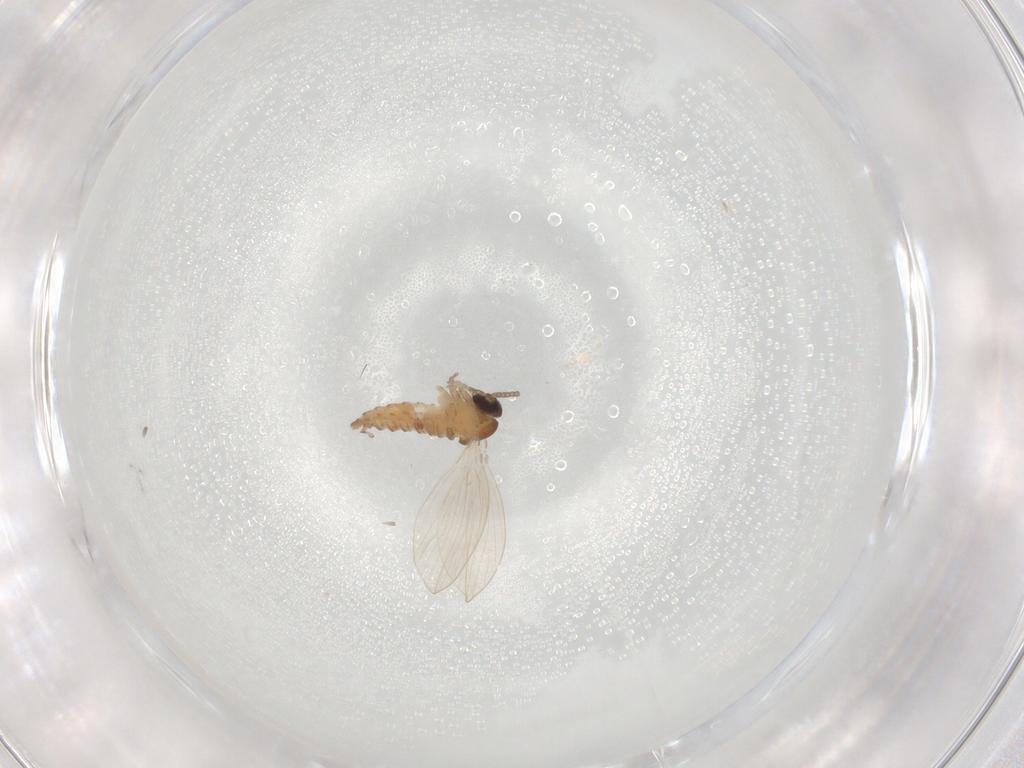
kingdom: Animalia
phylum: Arthropoda
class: Insecta
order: Diptera
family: Psychodidae
